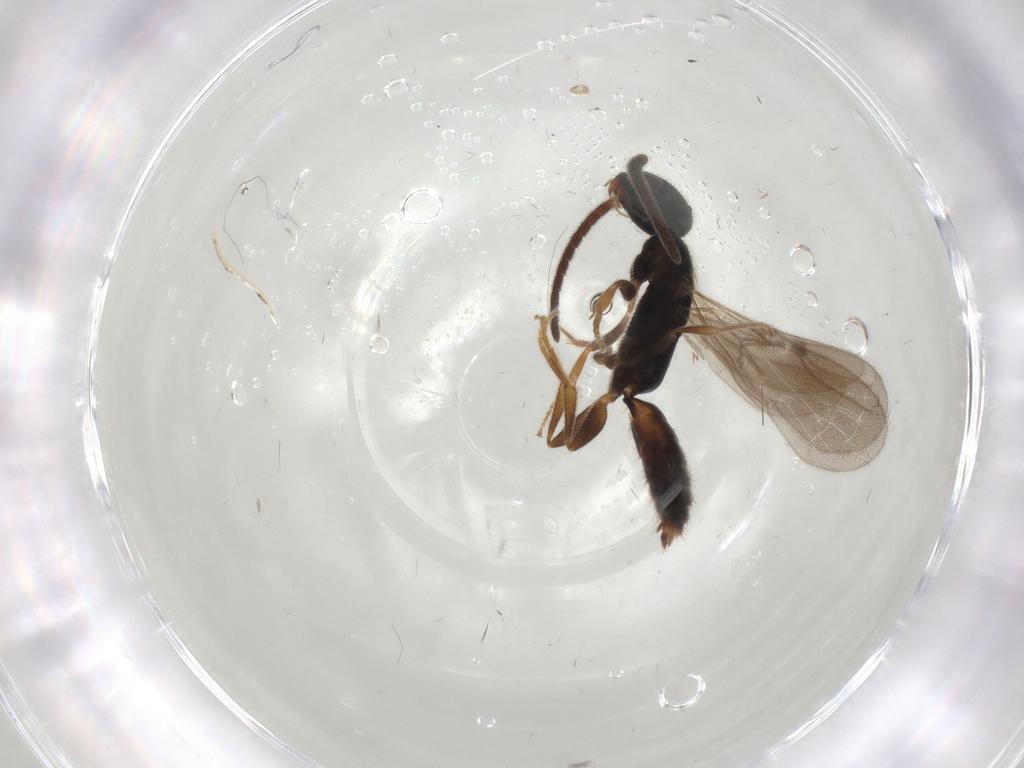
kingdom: Animalia
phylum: Arthropoda
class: Insecta
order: Hymenoptera
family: Bethylidae
